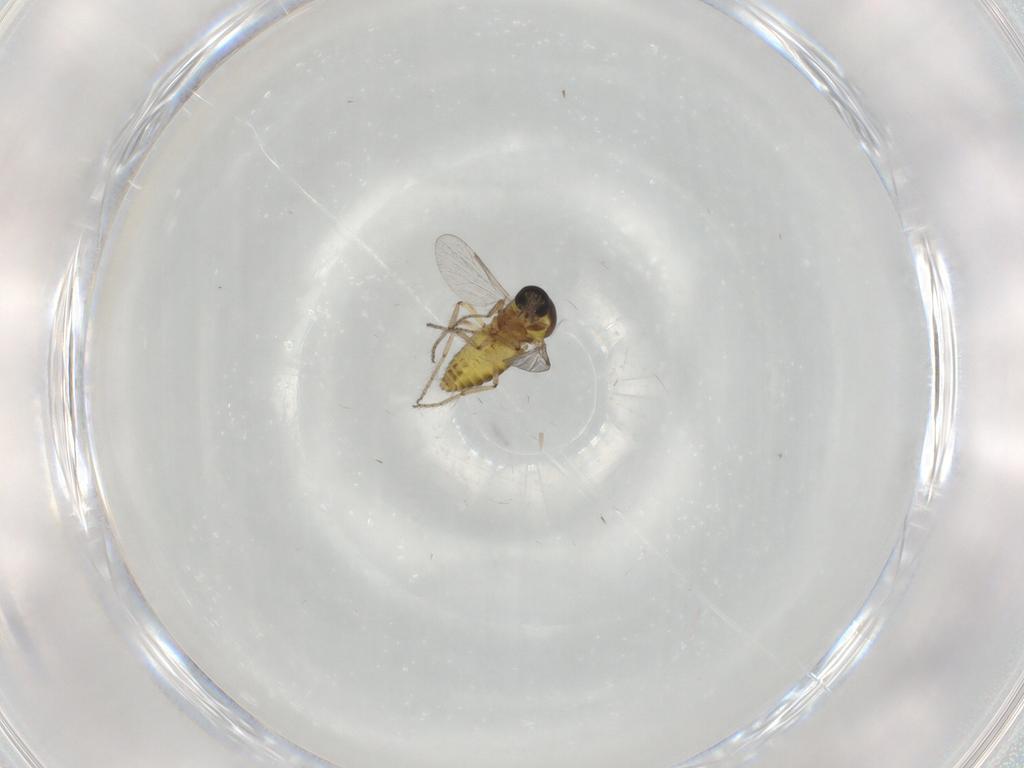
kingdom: Animalia
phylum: Arthropoda
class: Insecta
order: Diptera
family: Ceratopogonidae
